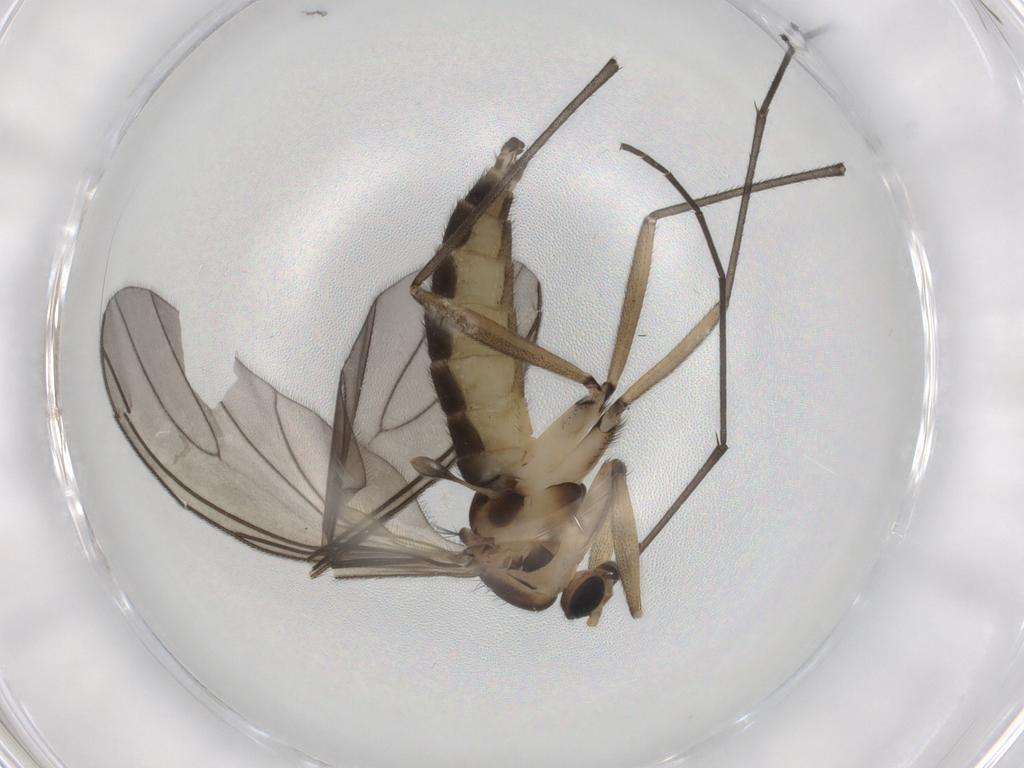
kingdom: Animalia
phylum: Arthropoda
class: Insecta
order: Diptera
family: Sciaridae
